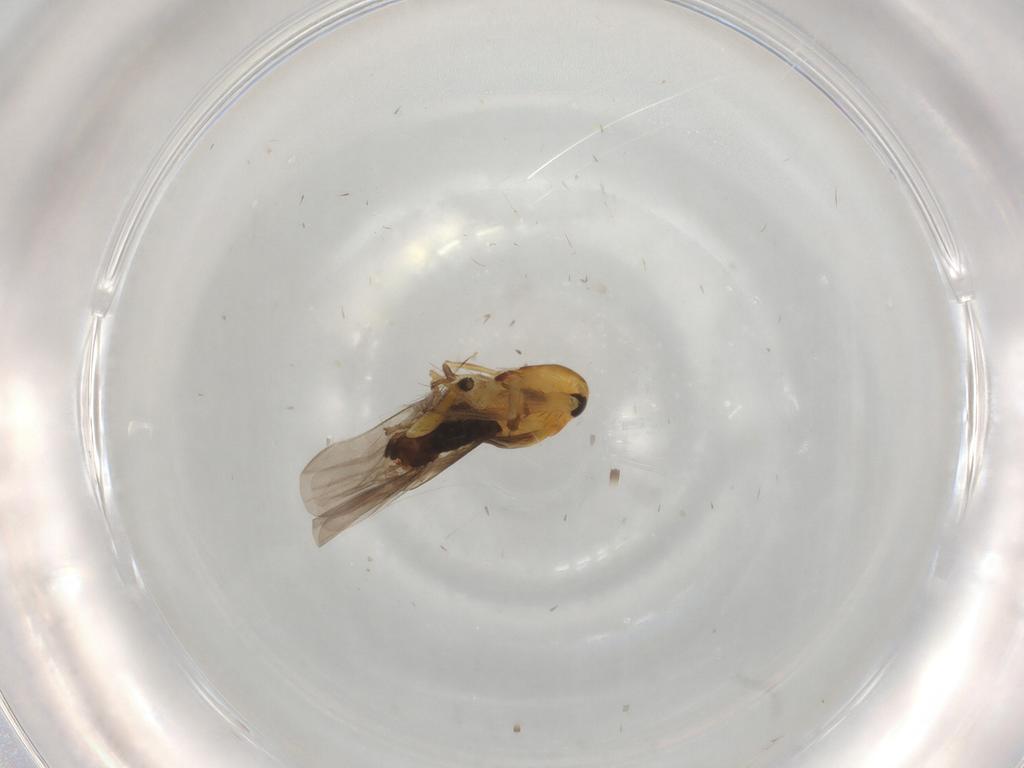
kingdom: Animalia
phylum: Arthropoda
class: Insecta
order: Hemiptera
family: Cicadellidae
